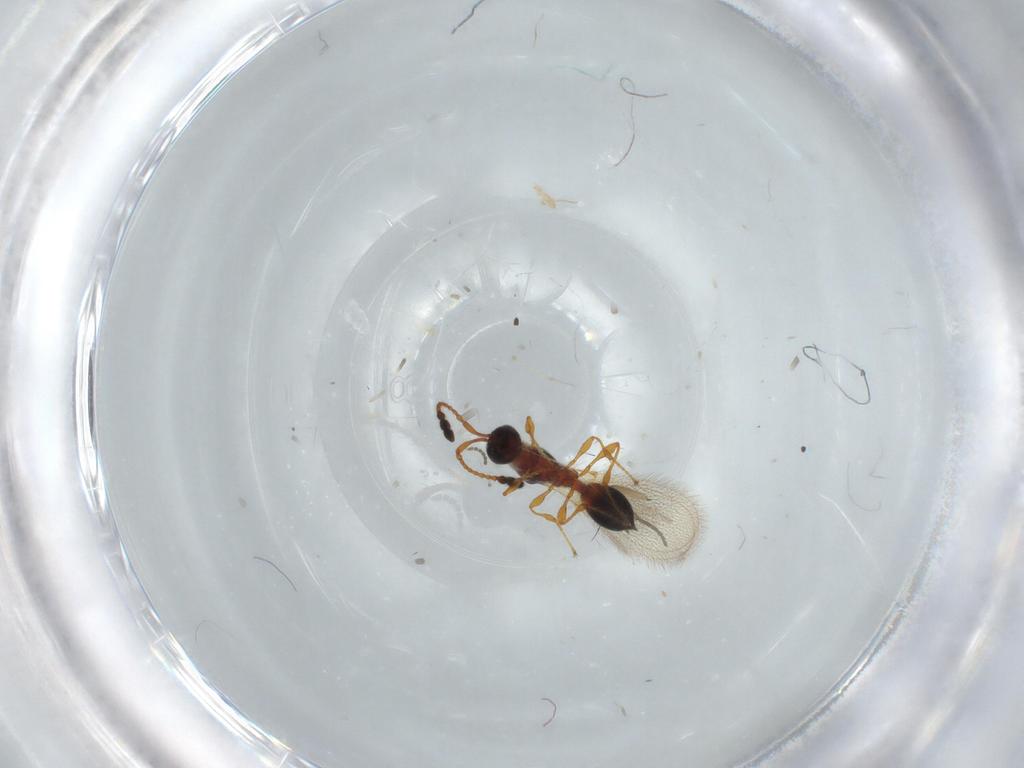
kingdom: Animalia
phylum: Arthropoda
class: Insecta
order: Hymenoptera
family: Diapriidae
